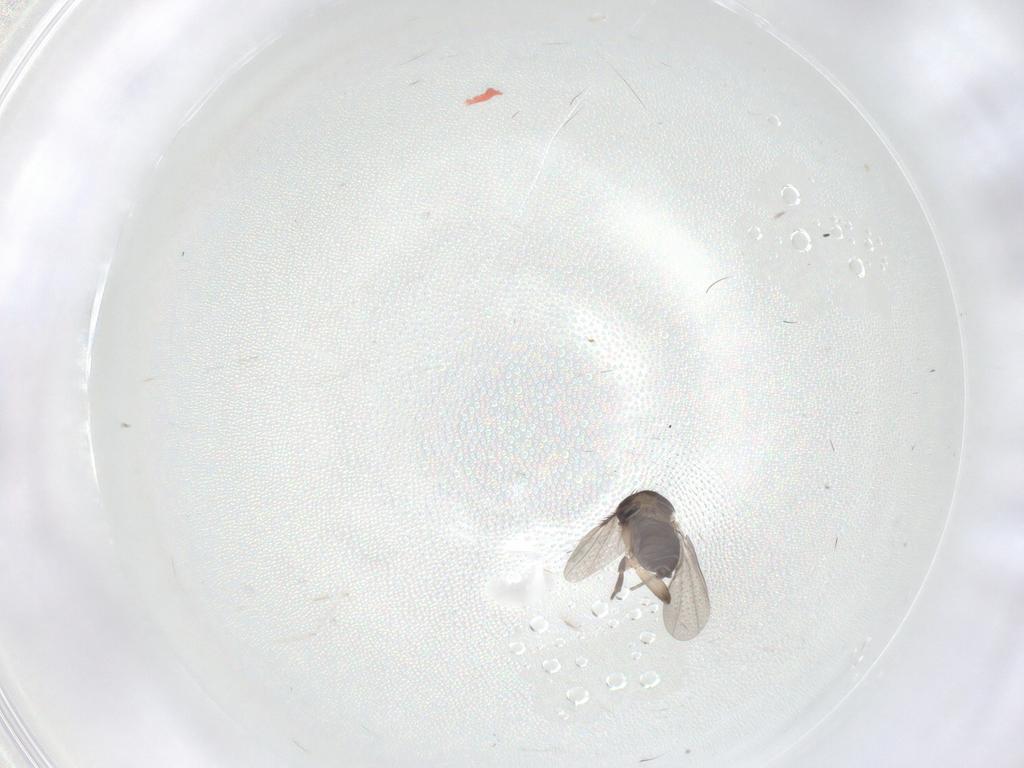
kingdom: Animalia
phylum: Arthropoda
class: Insecta
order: Diptera
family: Phoridae
